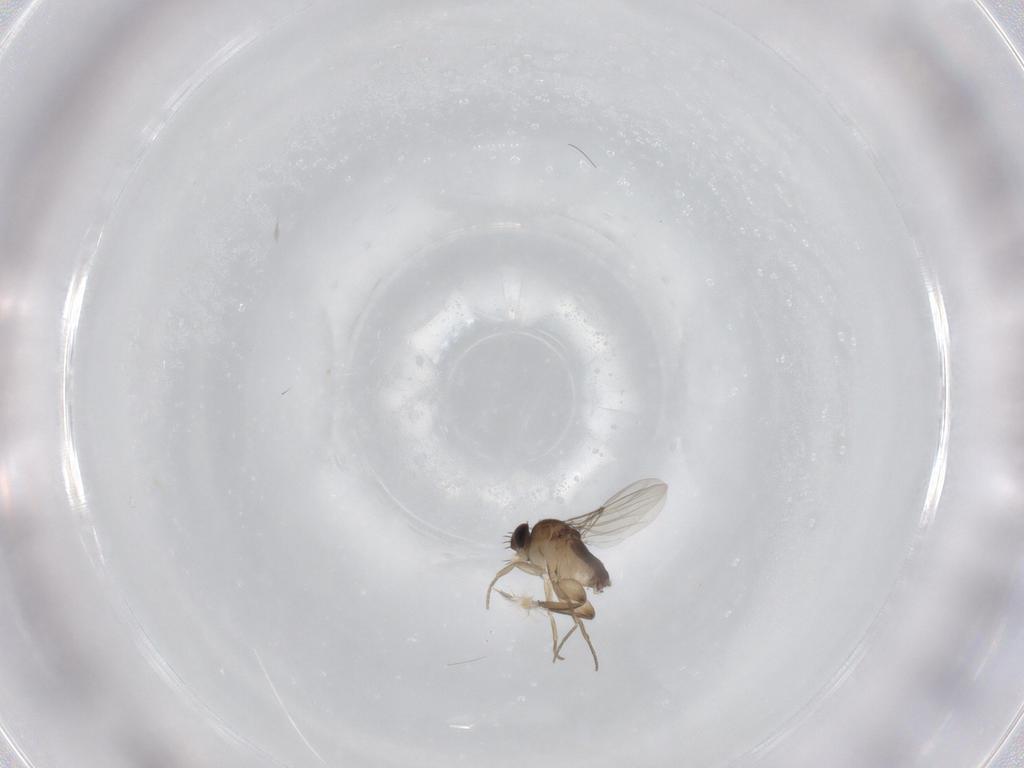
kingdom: Animalia
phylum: Arthropoda
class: Insecta
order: Diptera
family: Phoridae
